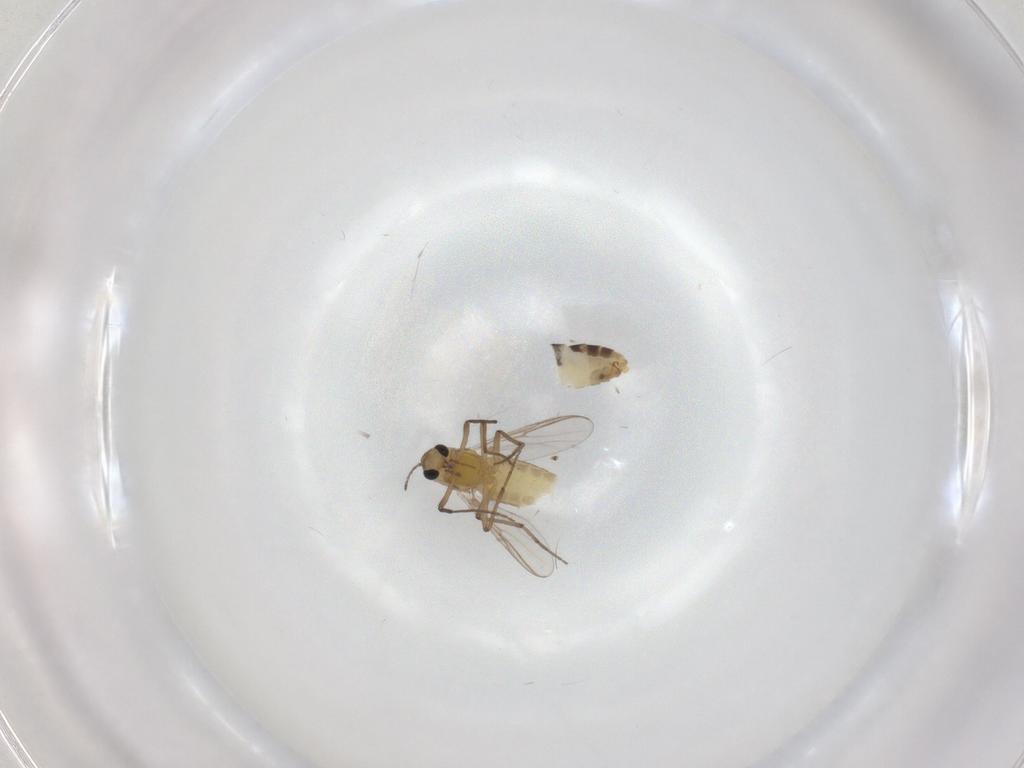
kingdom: Animalia
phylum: Arthropoda
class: Insecta
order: Diptera
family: Chironomidae
